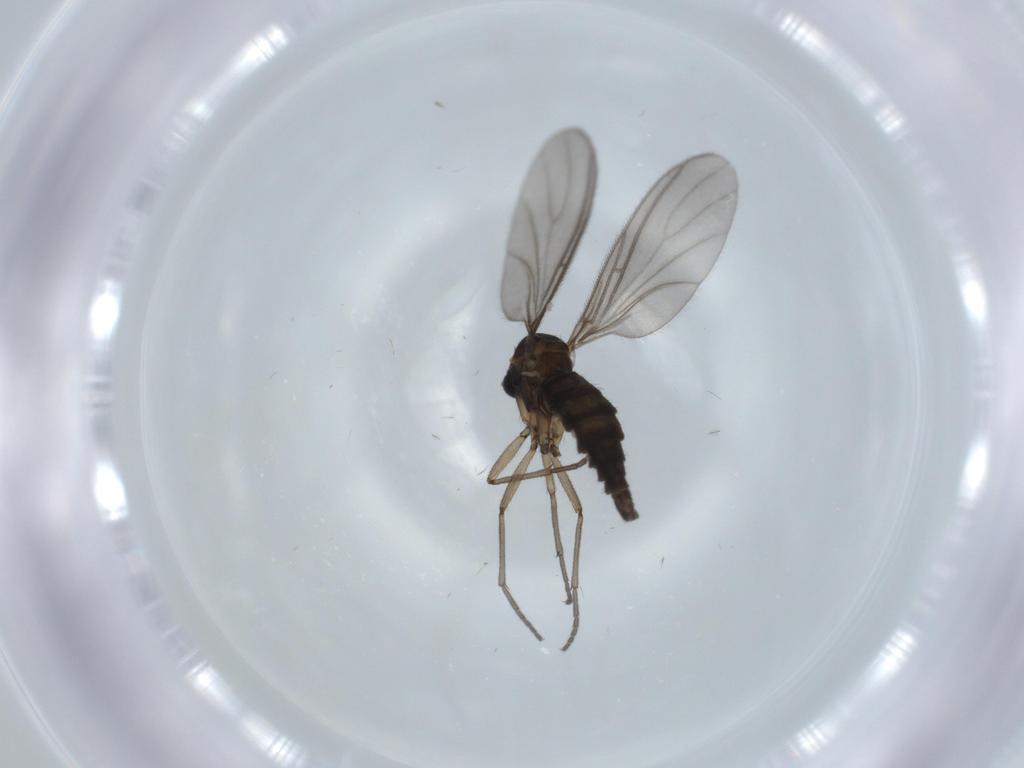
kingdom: Animalia
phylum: Arthropoda
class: Insecta
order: Diptera
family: Sciaridae
